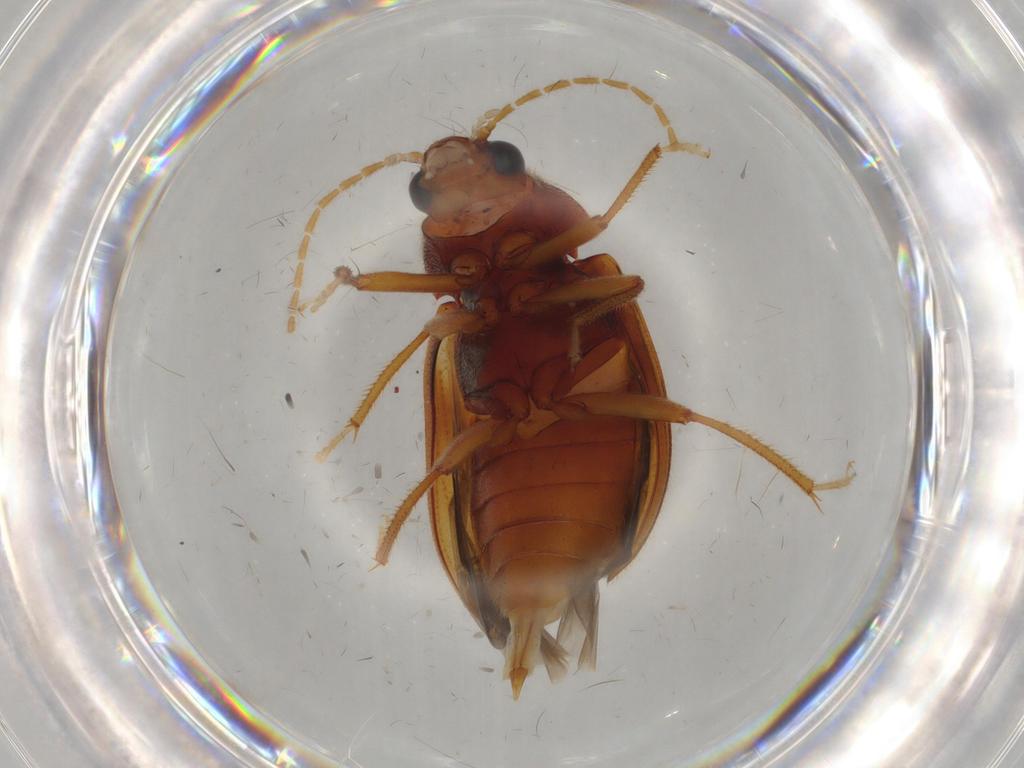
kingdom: Animalia
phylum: Arthropoda
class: Insecta
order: Coleoptera
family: Ptilodactylidae
